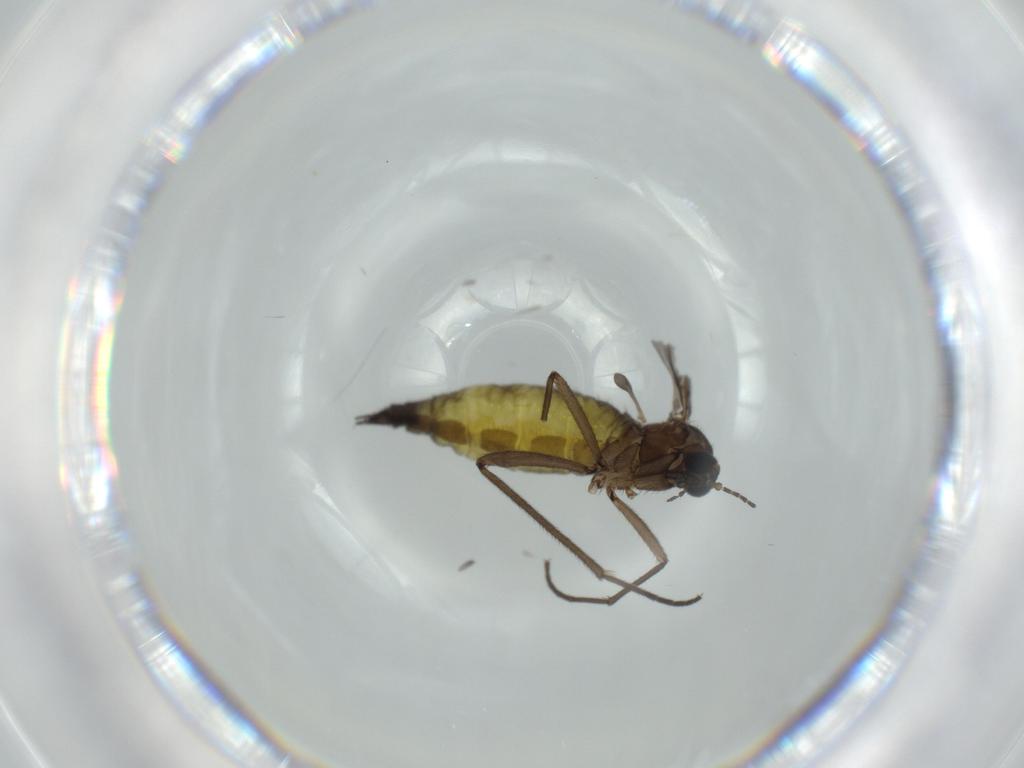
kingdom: Animalia
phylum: Arthropoda
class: Insecta
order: Diptera
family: Sciaridae
